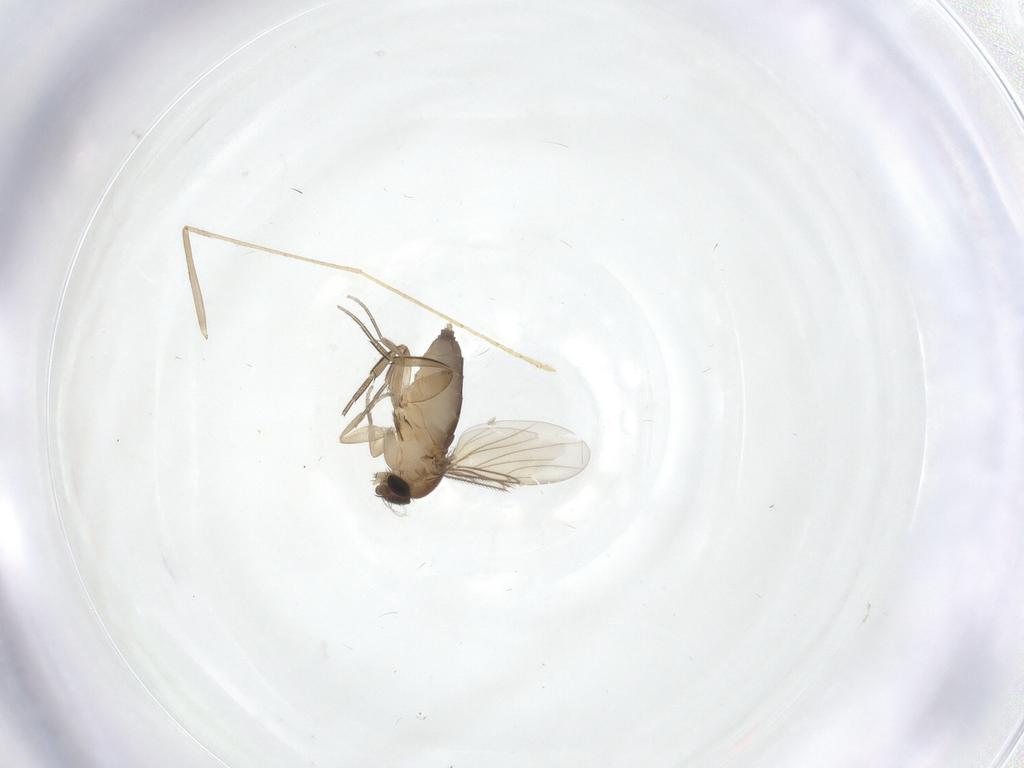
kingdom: Animalia
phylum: Arthropoda
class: Insecta
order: Diptera
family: Phoridae
